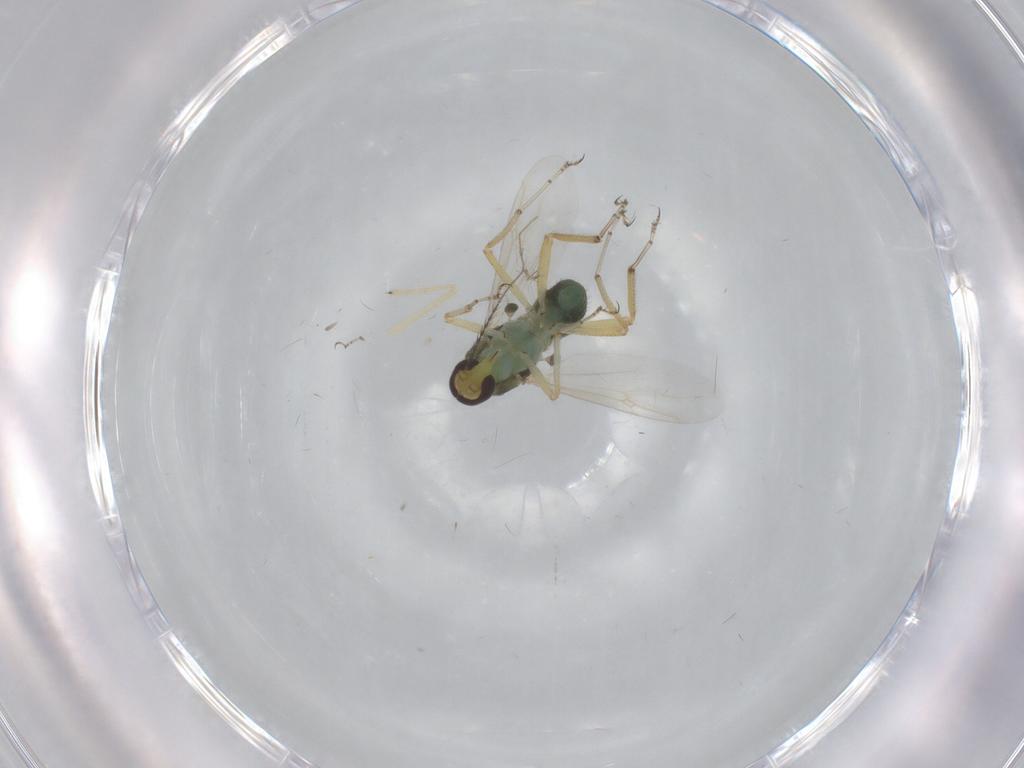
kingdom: Animalia
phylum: Arthropoda
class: Insecta
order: Diptera
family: Ceratopogonidae
